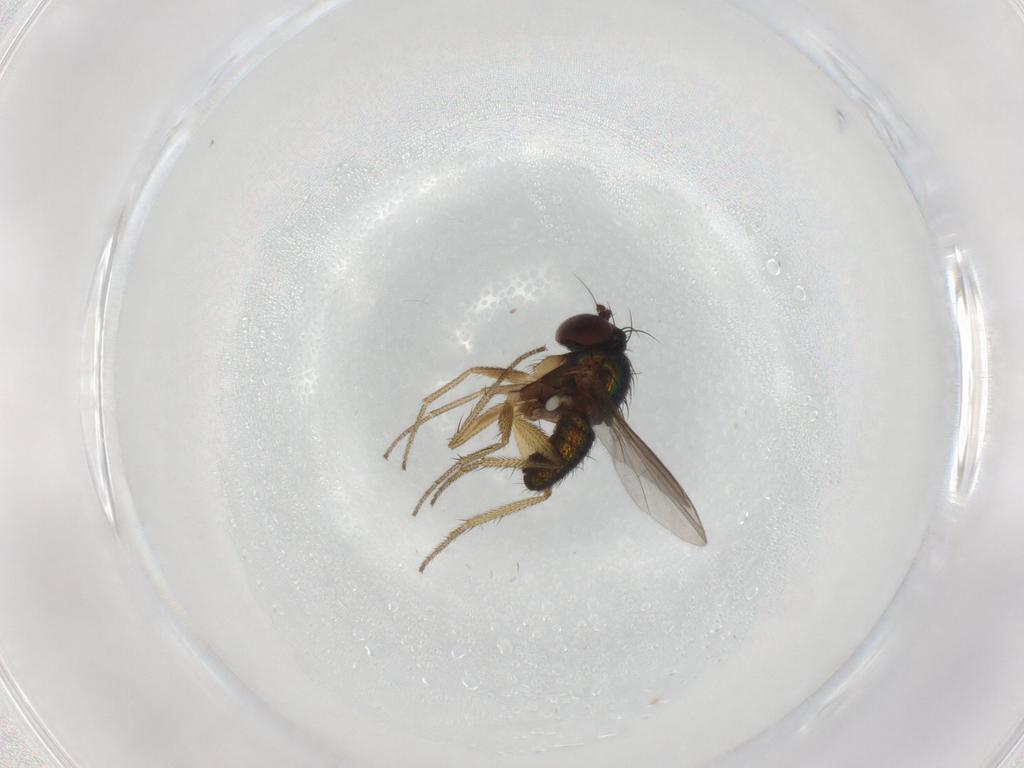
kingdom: Animalia
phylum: Arthropoda
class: Insecta
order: Diptera
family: Dolichopodidae
